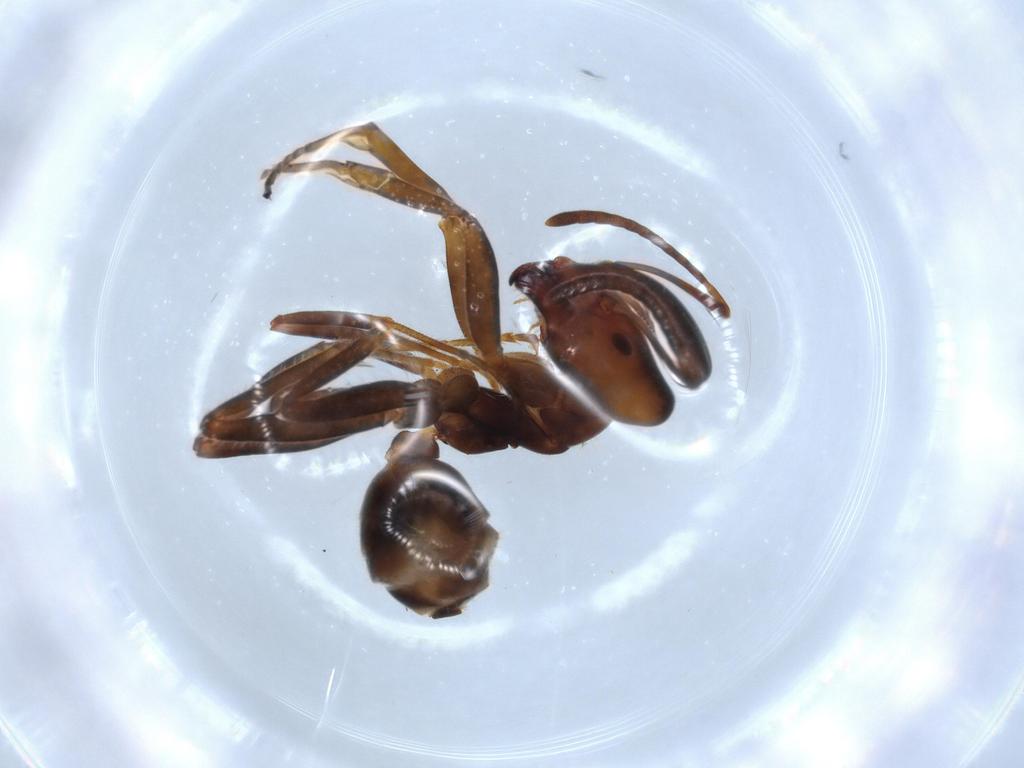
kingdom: Animalia
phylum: Arthropoda
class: Insecta
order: Hymenoptera
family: Formicidae
